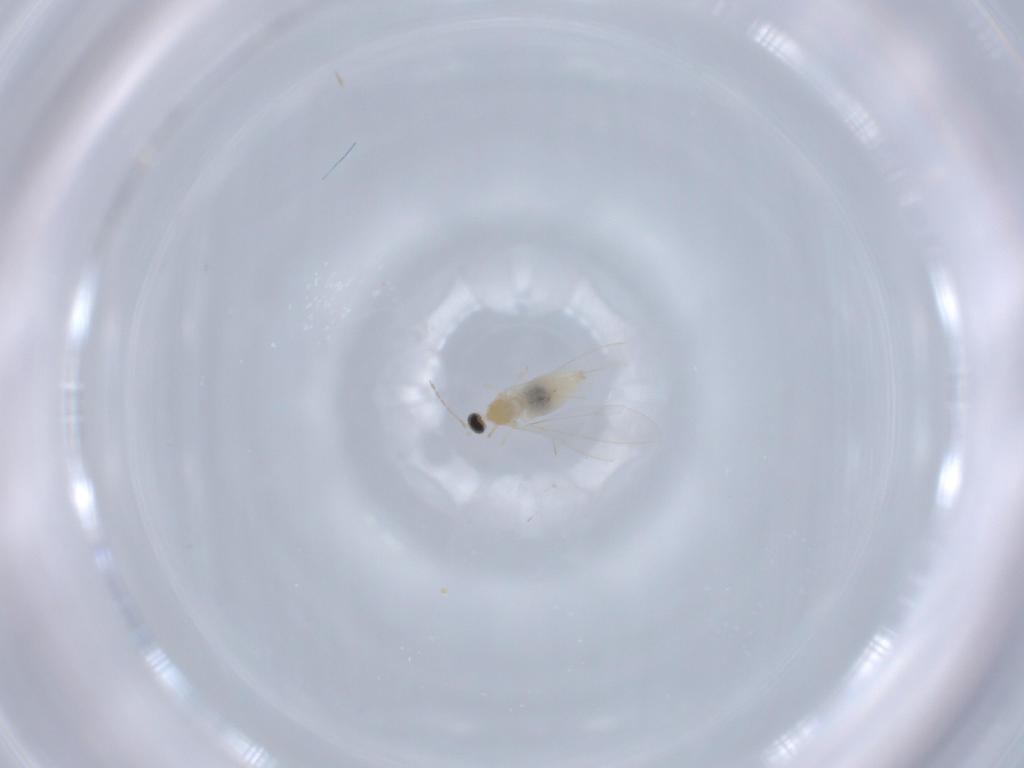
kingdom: Animalia
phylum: Arthropoda
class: Insecta
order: Diptera
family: Cecidomyiidae
